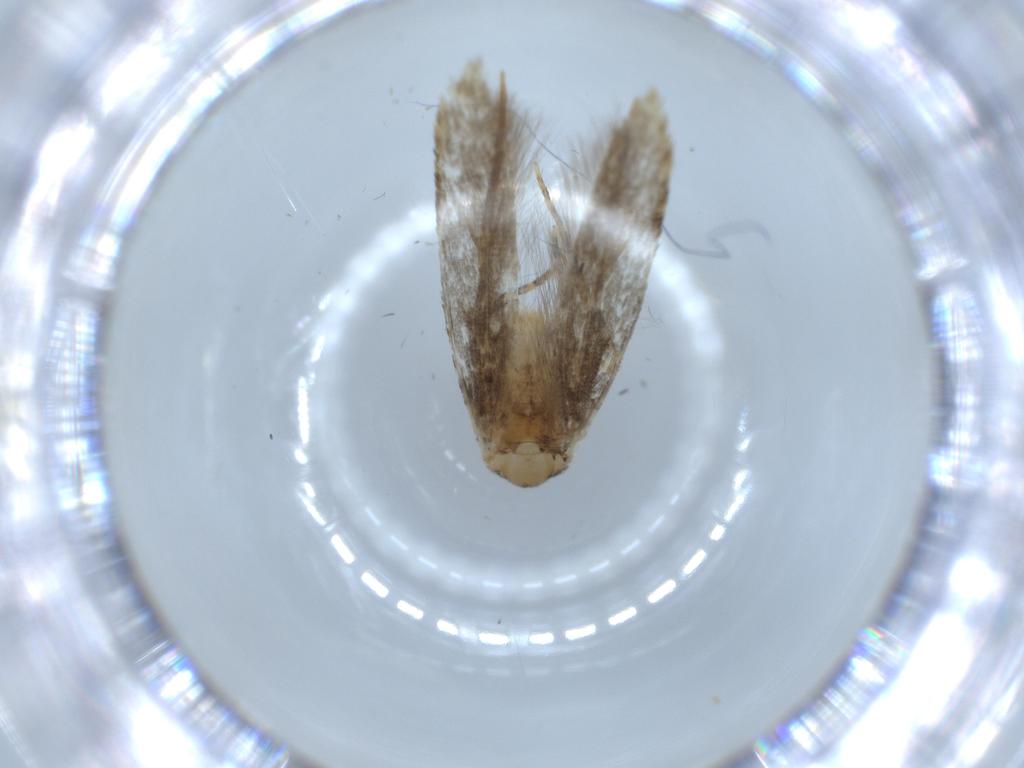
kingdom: Animalia
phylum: Arthropoda
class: Insecta
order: Lepidoptera
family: Tineidae
